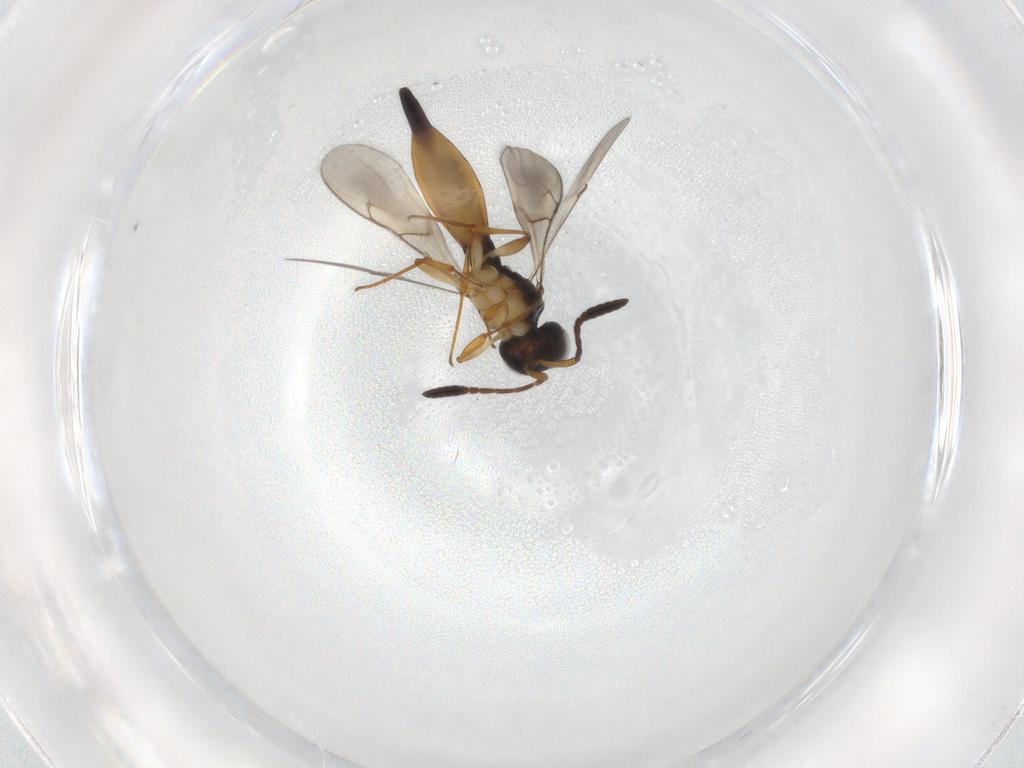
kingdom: Animalia
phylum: Arthropoda
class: Insecta
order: Hymenoptera
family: Scelionidae
